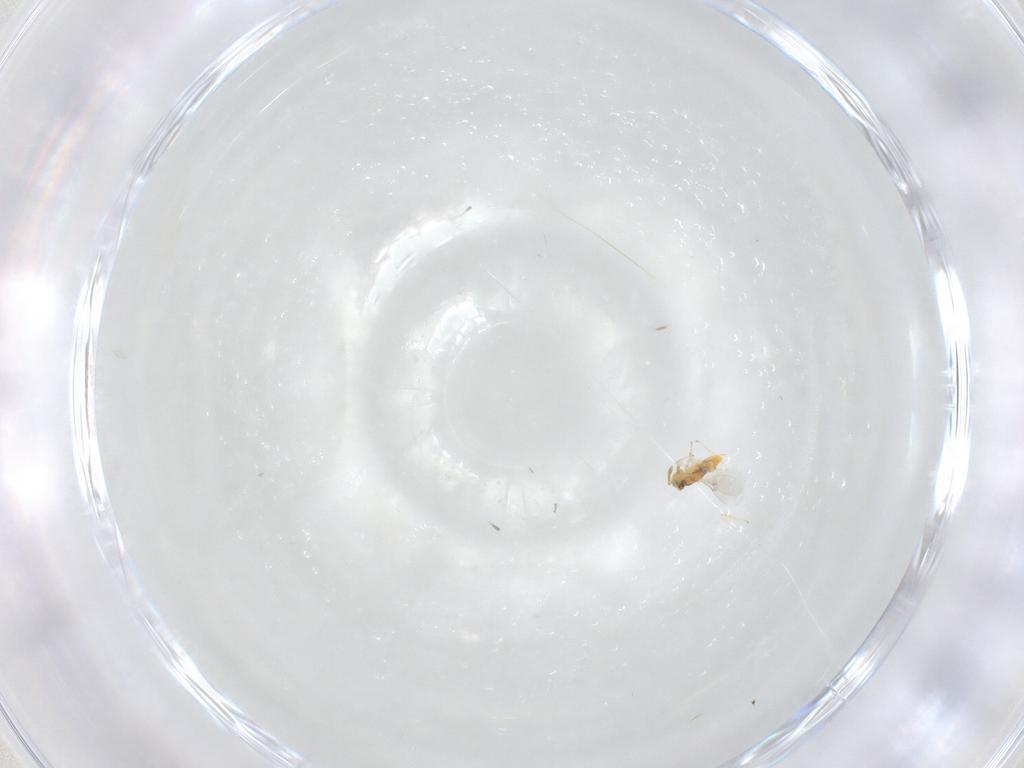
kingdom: Animalia
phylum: Arthropoda
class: Insecta
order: Hymenoptera
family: Encyrtidae
